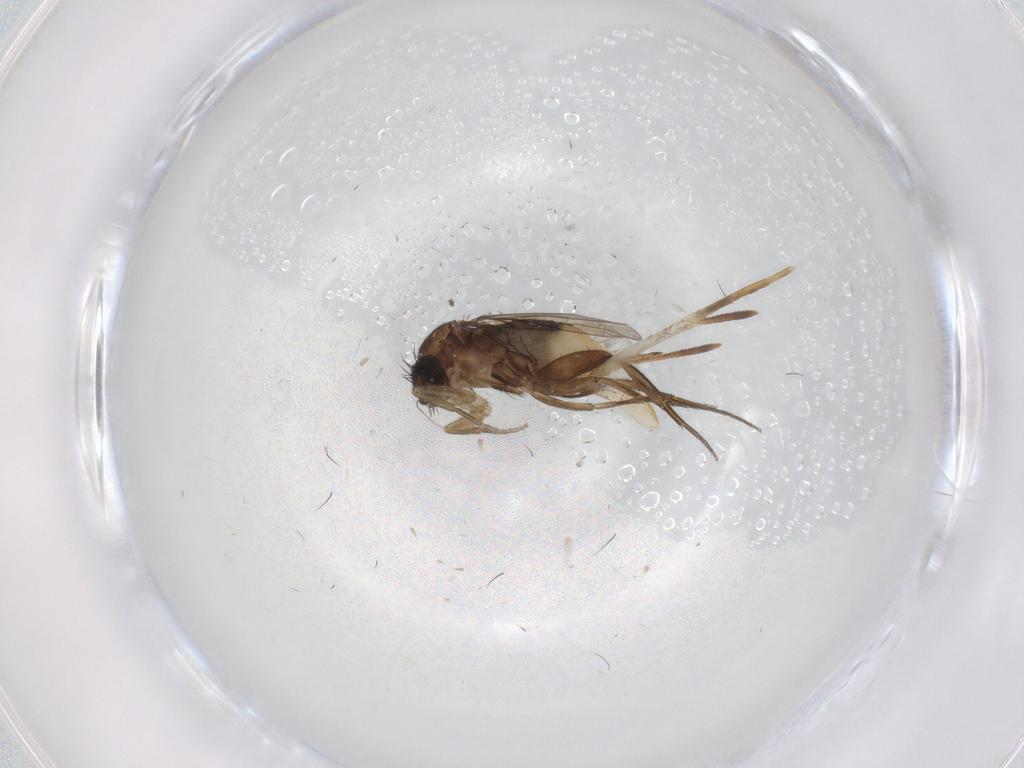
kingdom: Animalia
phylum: Arthropoda
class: Insecta
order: Diptera
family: Phoridae
